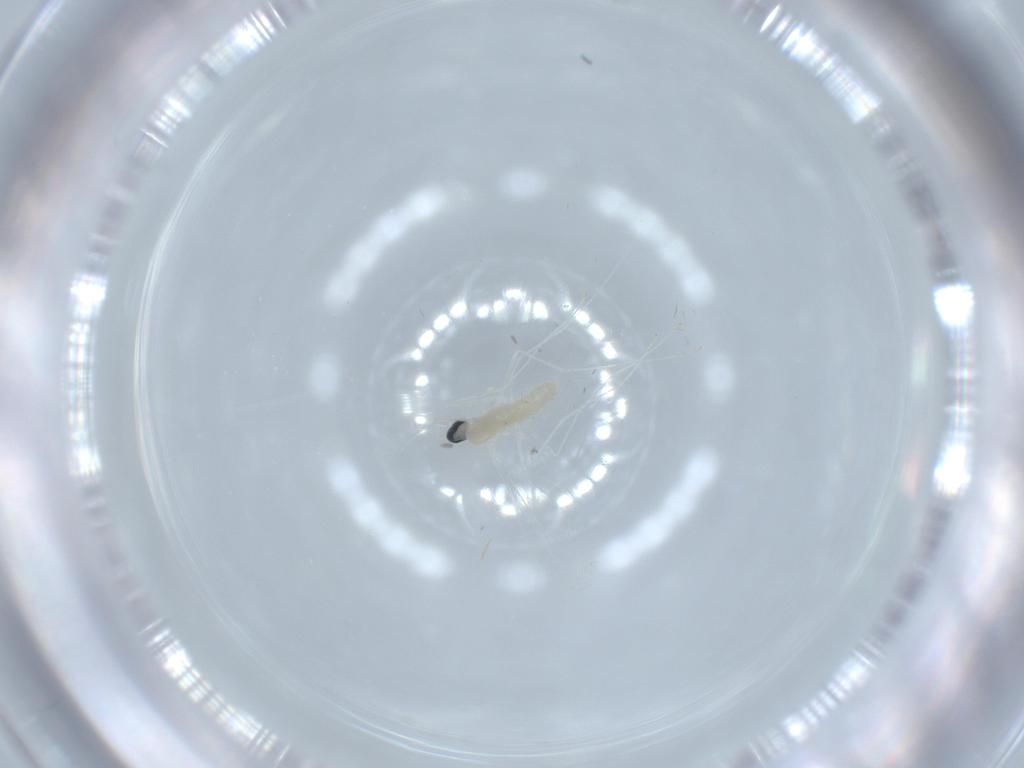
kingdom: Animalia
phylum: Arthropoda
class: Insecta
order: Diptera
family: Cecidomyiidae
